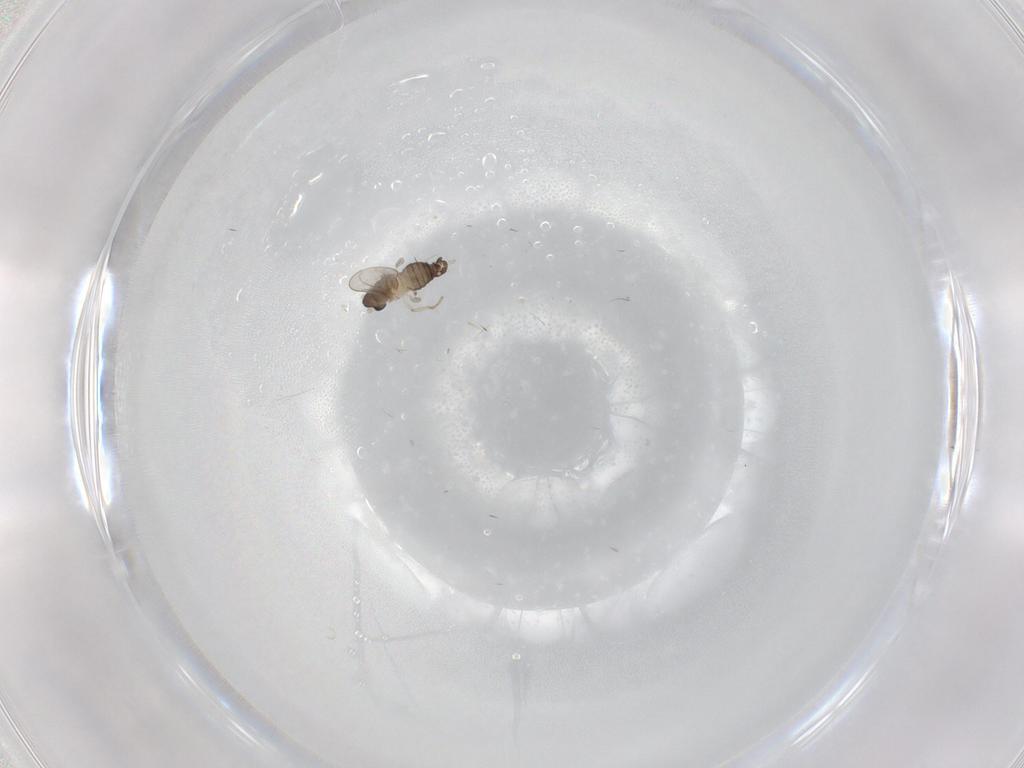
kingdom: Animalia
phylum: Arthropoda
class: Insecta
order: Diptera
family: Cecidomyiidae
